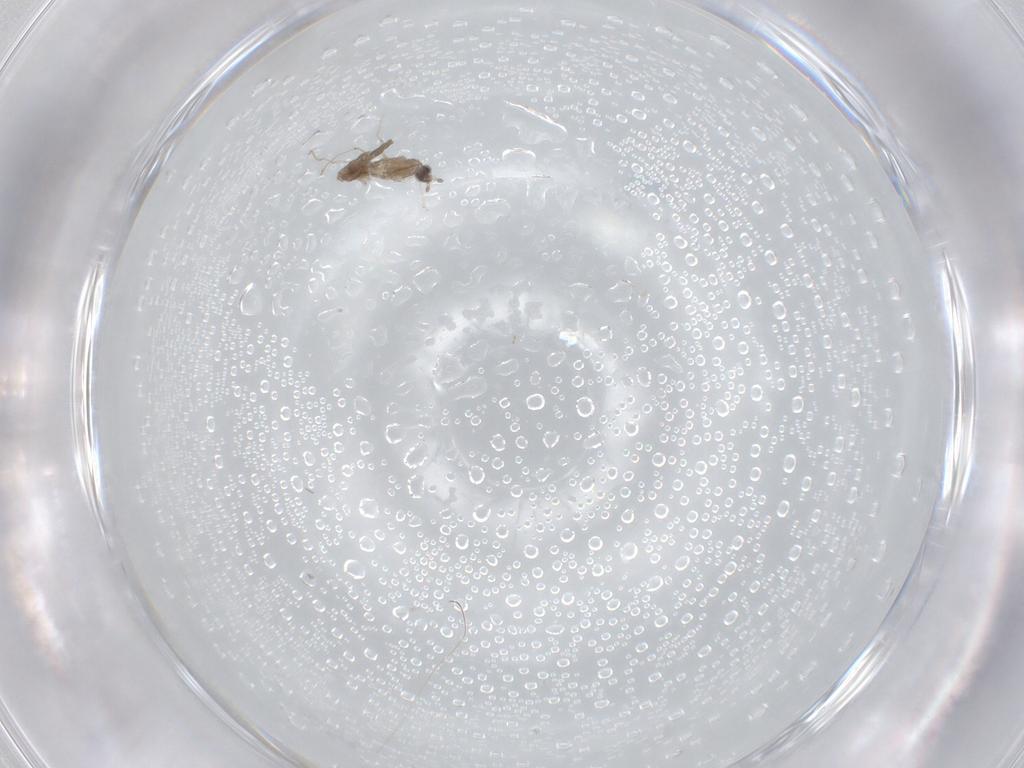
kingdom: Animalia
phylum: Arthropoda
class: Insecta
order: Diptera
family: Cecidomyiidae
